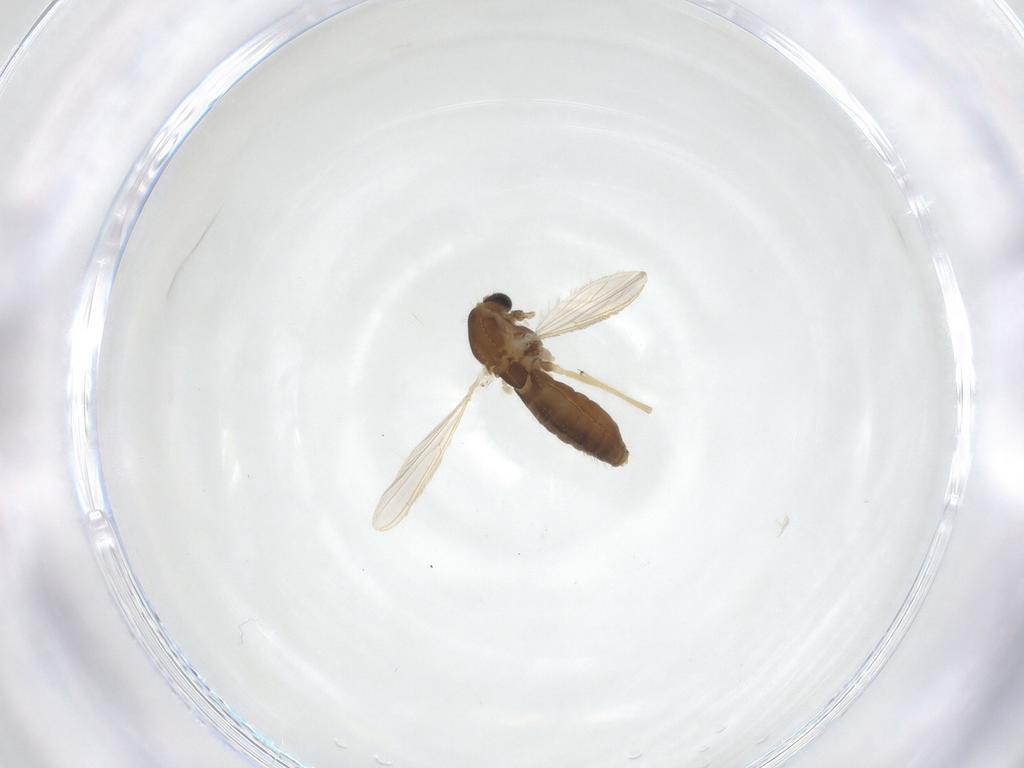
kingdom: Animalia
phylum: Arthropoda
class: Insecta
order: Diptera
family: Chironomidae
